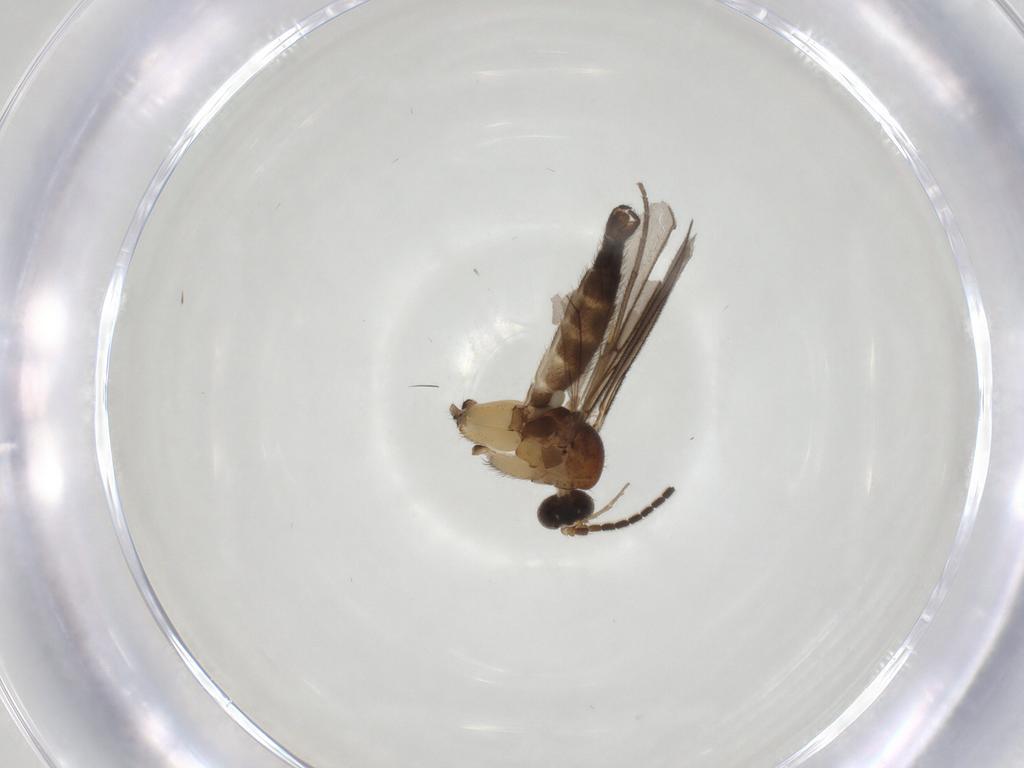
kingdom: Animalia
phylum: Arthropoda
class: Insecta
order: Diptera
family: Mycetophilidae
